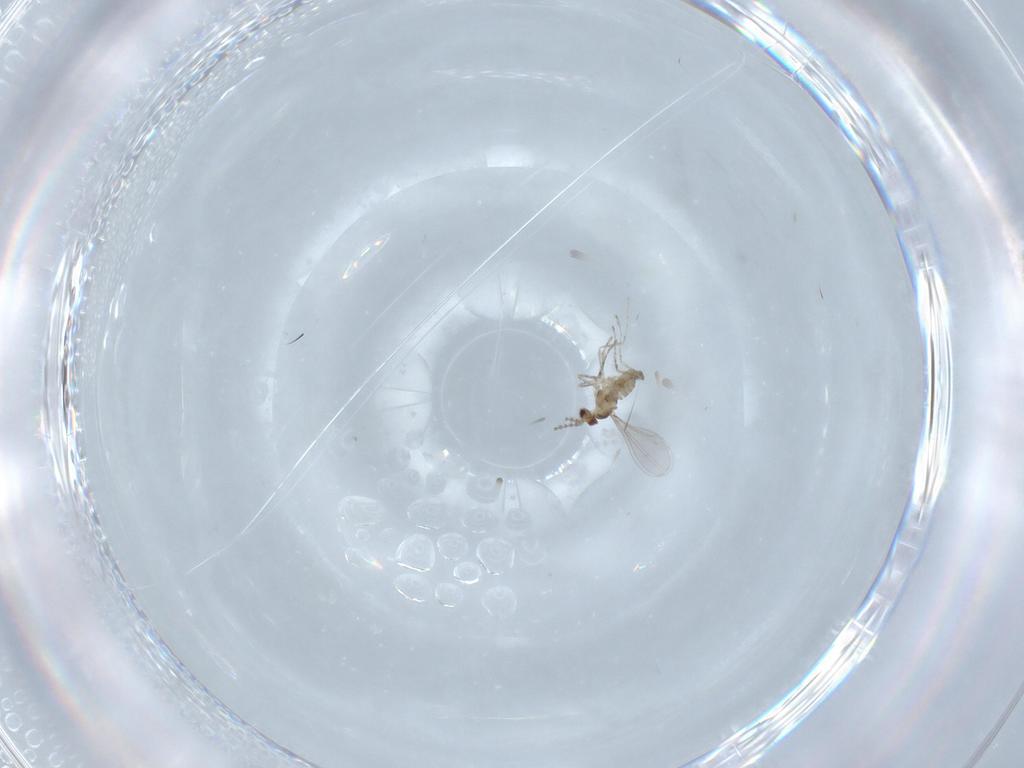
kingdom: Animalia
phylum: Arthropoda
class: Insecta
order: Diptera
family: Cecidomyiidae
